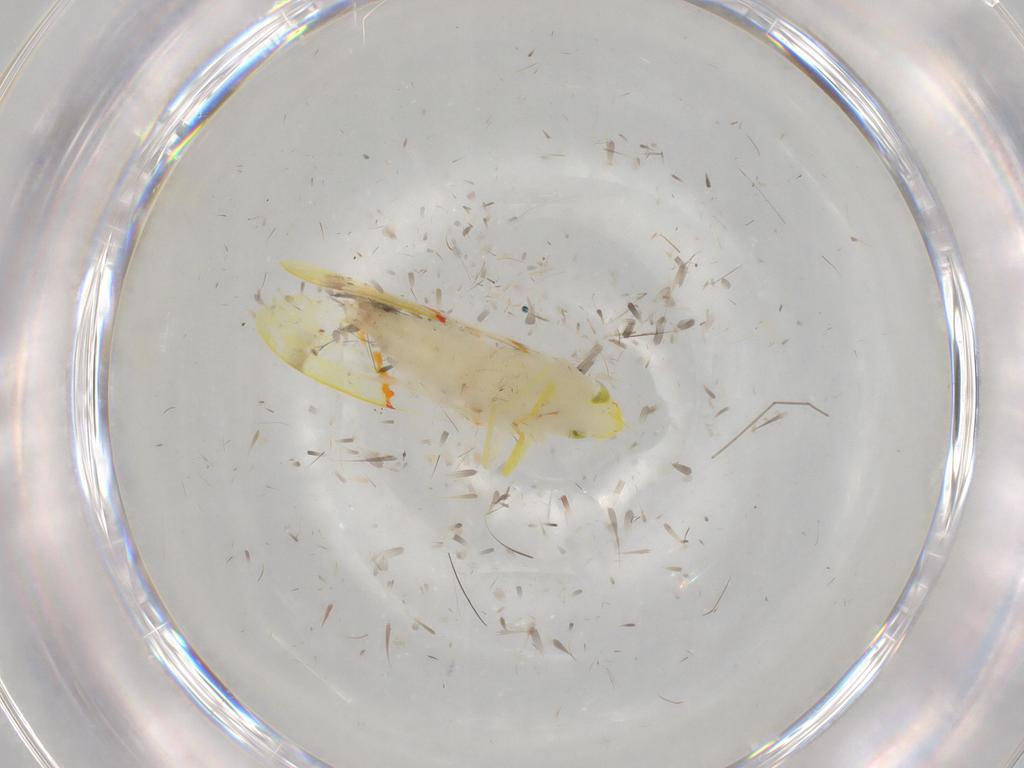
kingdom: Animalia
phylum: Arthropoda
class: Insecta
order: Hemiptera
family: Cicadellidae
